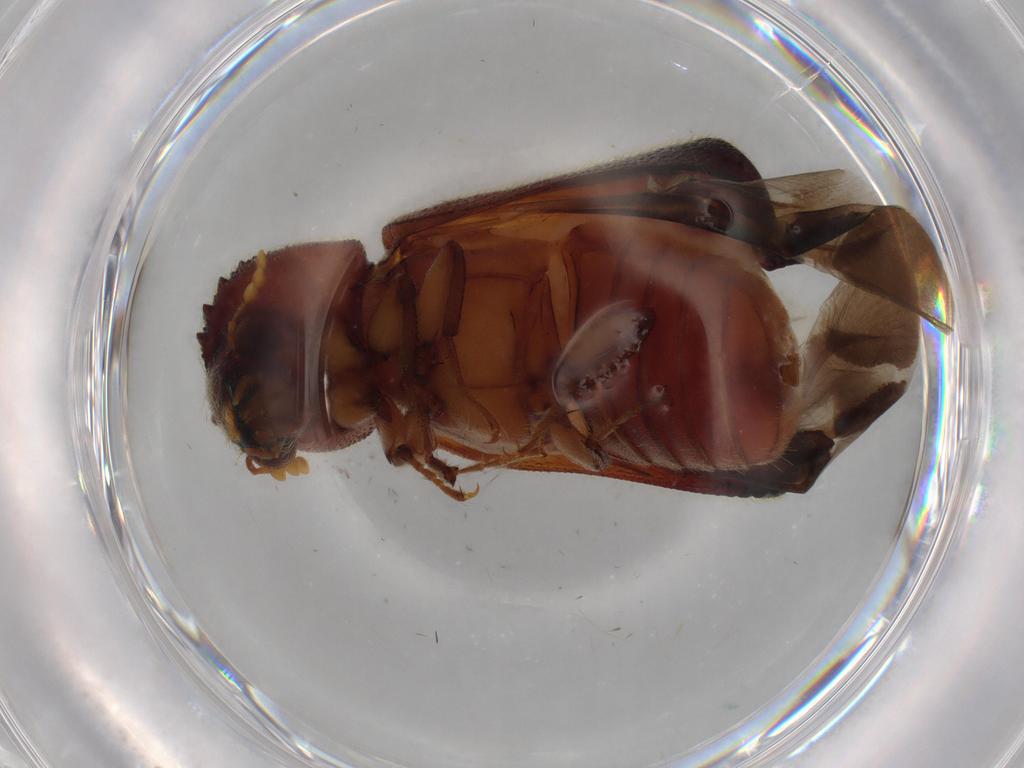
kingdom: Animalia
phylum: Arthropoda
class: Insecta
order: Coleoptera
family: Bostrichidae
